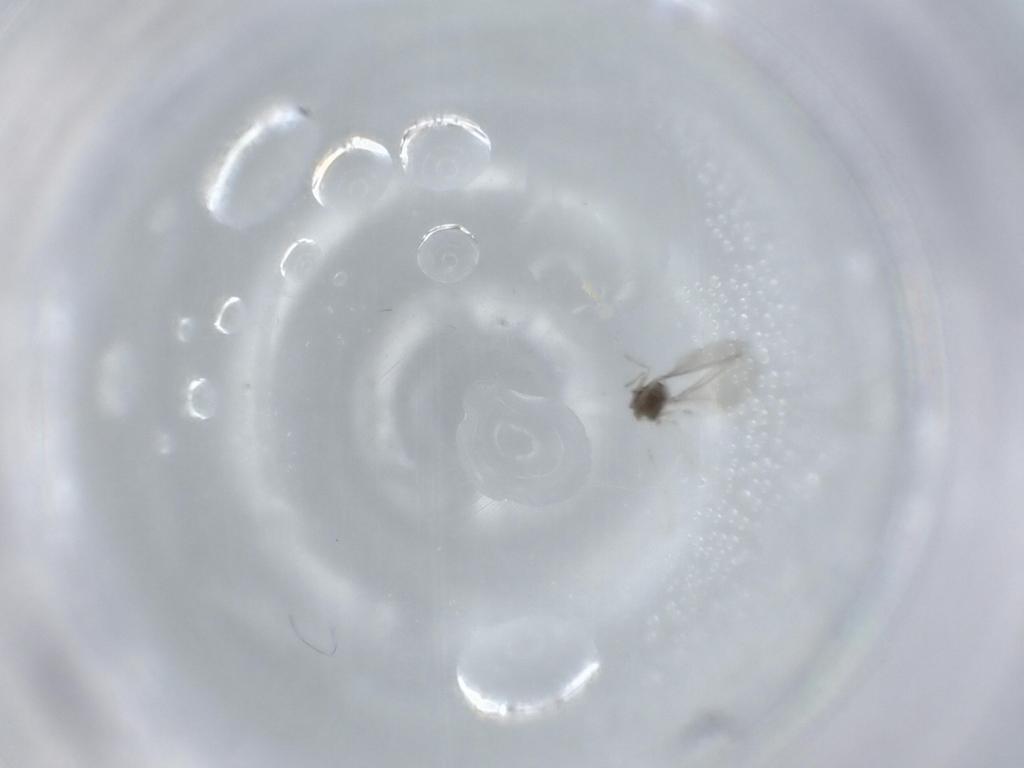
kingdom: Animalia
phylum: Arthropoda
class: Insecta
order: Diptera
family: Cecidomyiidae
